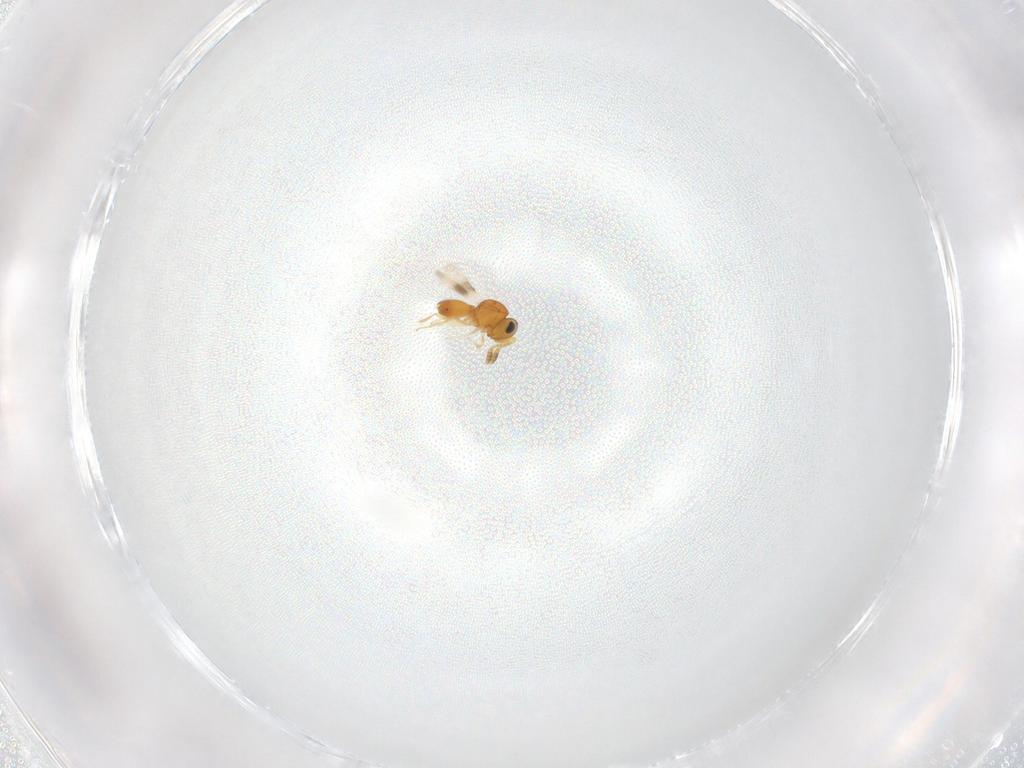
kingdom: Animalia
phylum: Arthropoda
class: Insecta
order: Hymenoptera
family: Ichneumonidae
